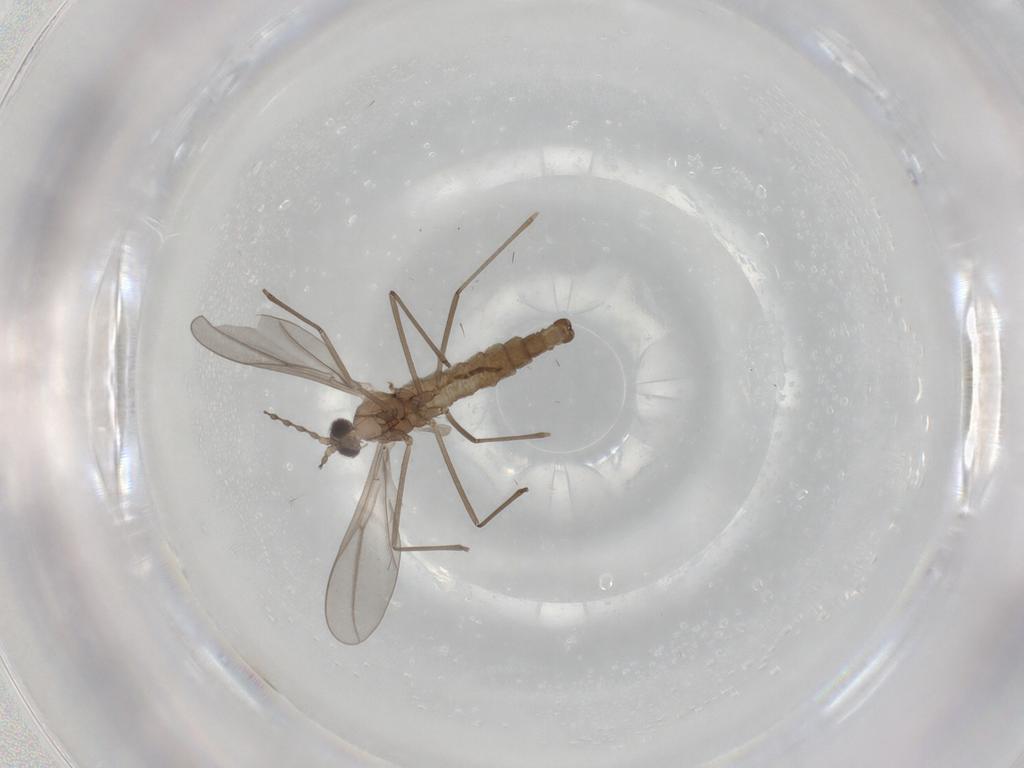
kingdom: Animalia
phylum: Arthropoda
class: Insecta
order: Diptera
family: Cecidomyiidae
